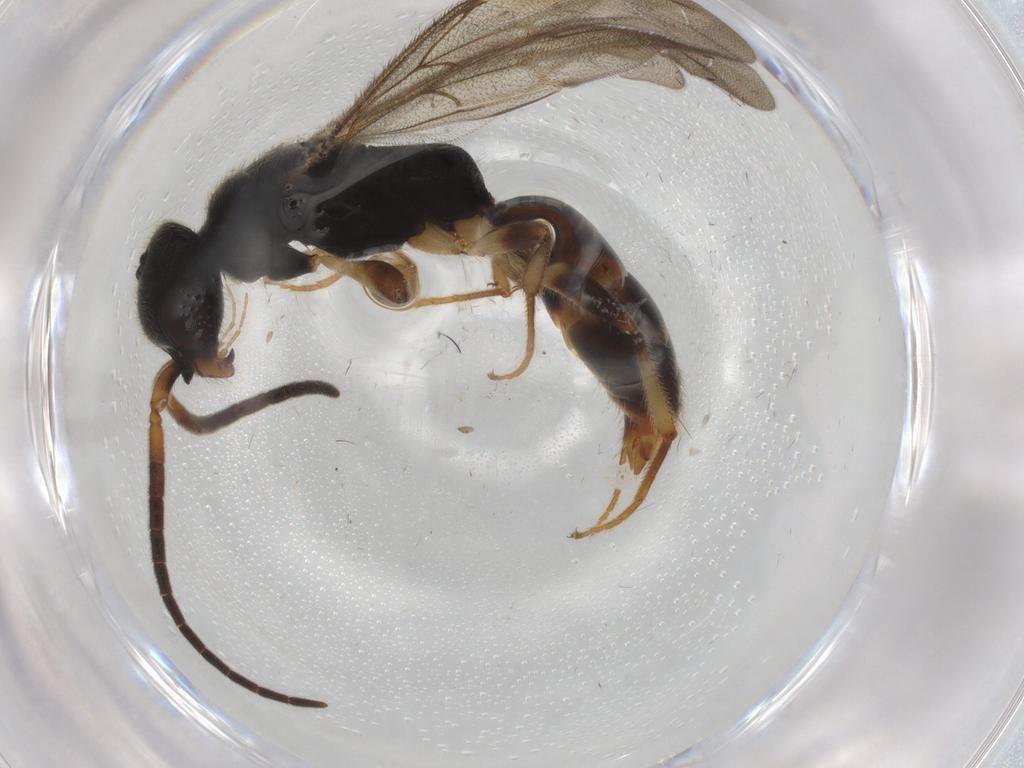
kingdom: Animalia
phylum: Arthropoda
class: Insecta
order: Hymenoptera
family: Bethylidae
